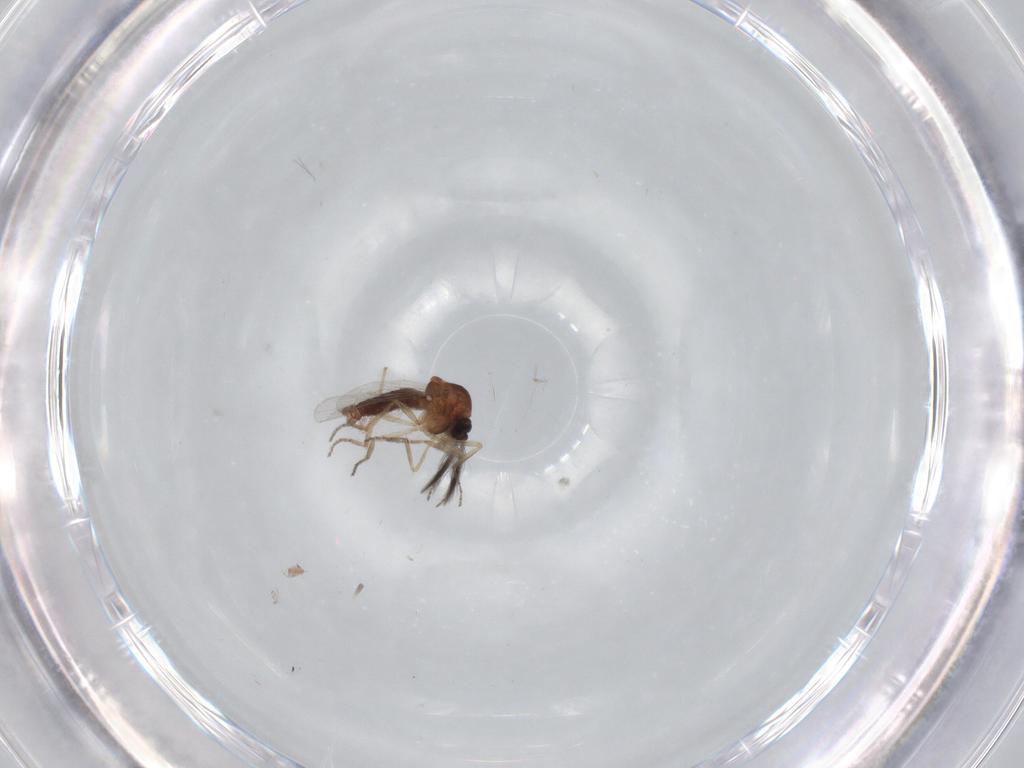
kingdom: Animalia
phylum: Arthropoda
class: Insecta
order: Diptera
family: Ceratopogonidae
